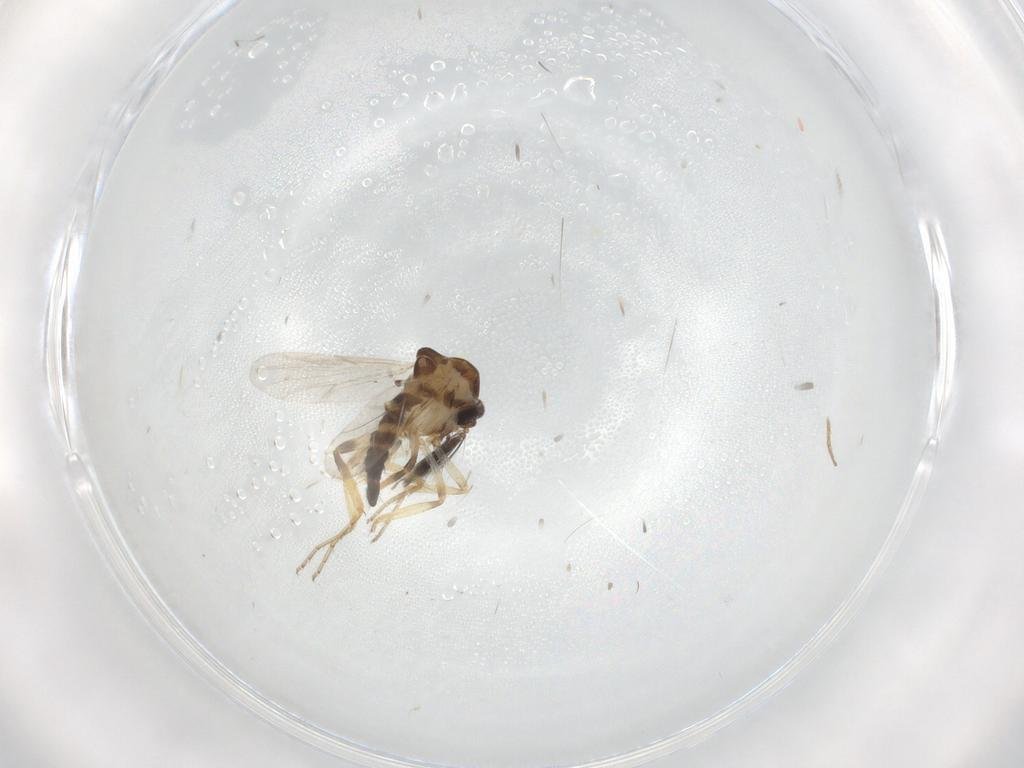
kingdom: Animalia
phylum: Arthropoda
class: Insecta
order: Diptera
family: Ceratopogonidae
